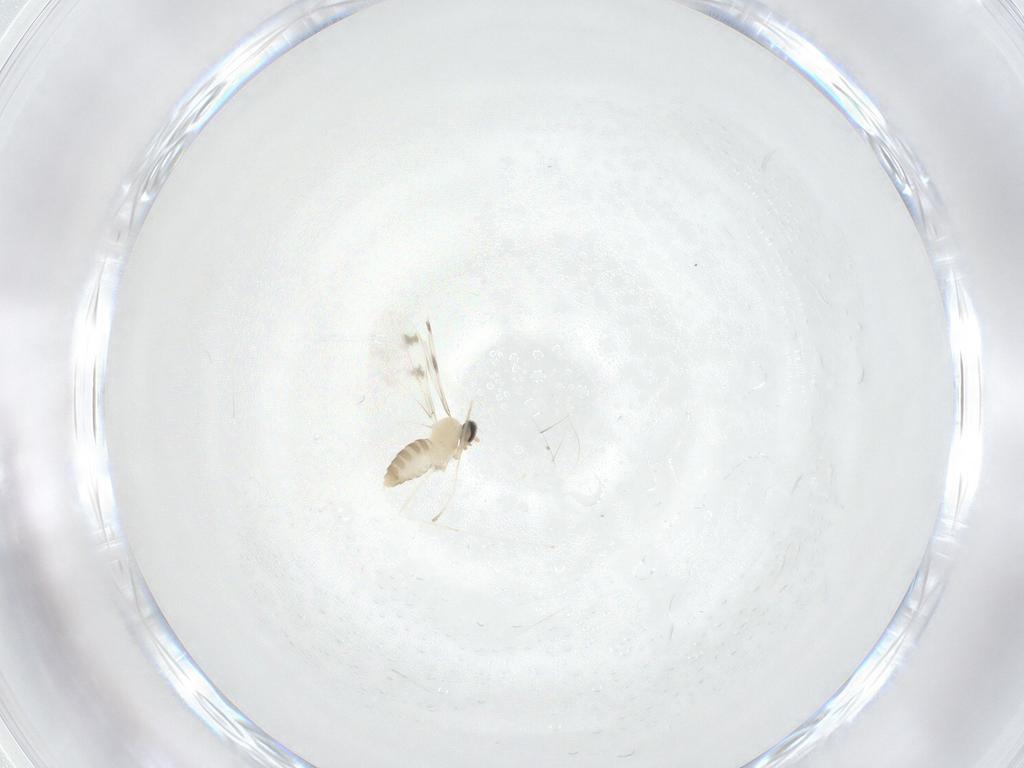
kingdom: Animalia
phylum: Arthropoda
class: Insecta
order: Diptera
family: Cecidomyiidae
